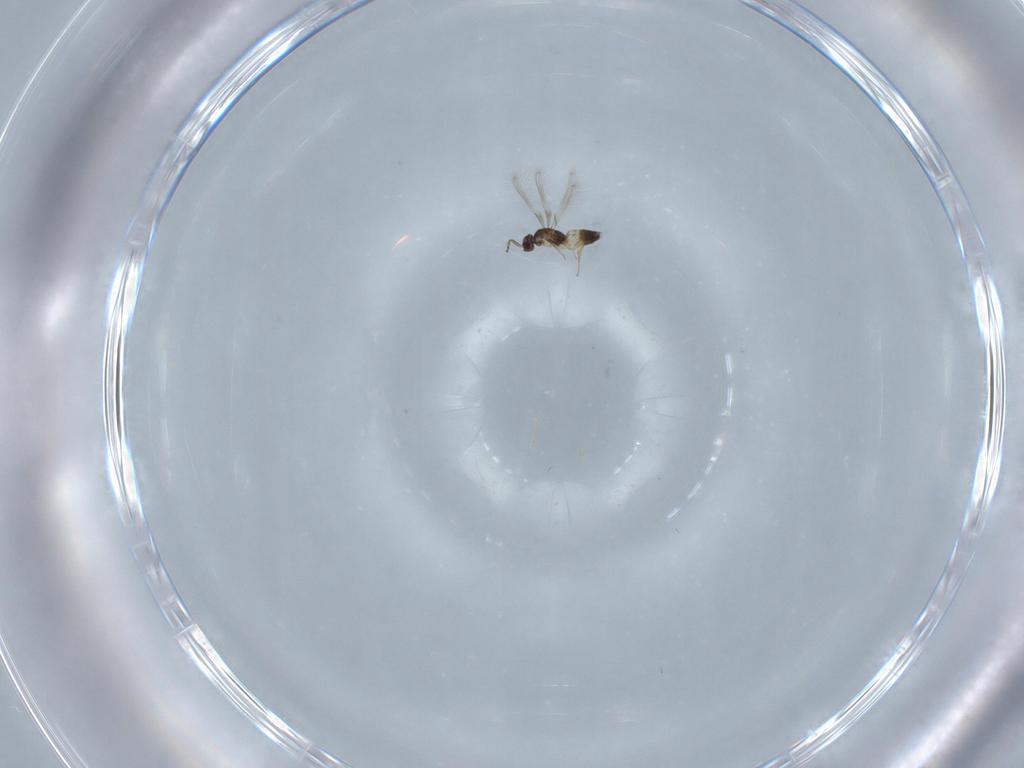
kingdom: Animalia
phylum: Arthropoda
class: Insecta
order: Hymenoptera
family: Mymaridae
